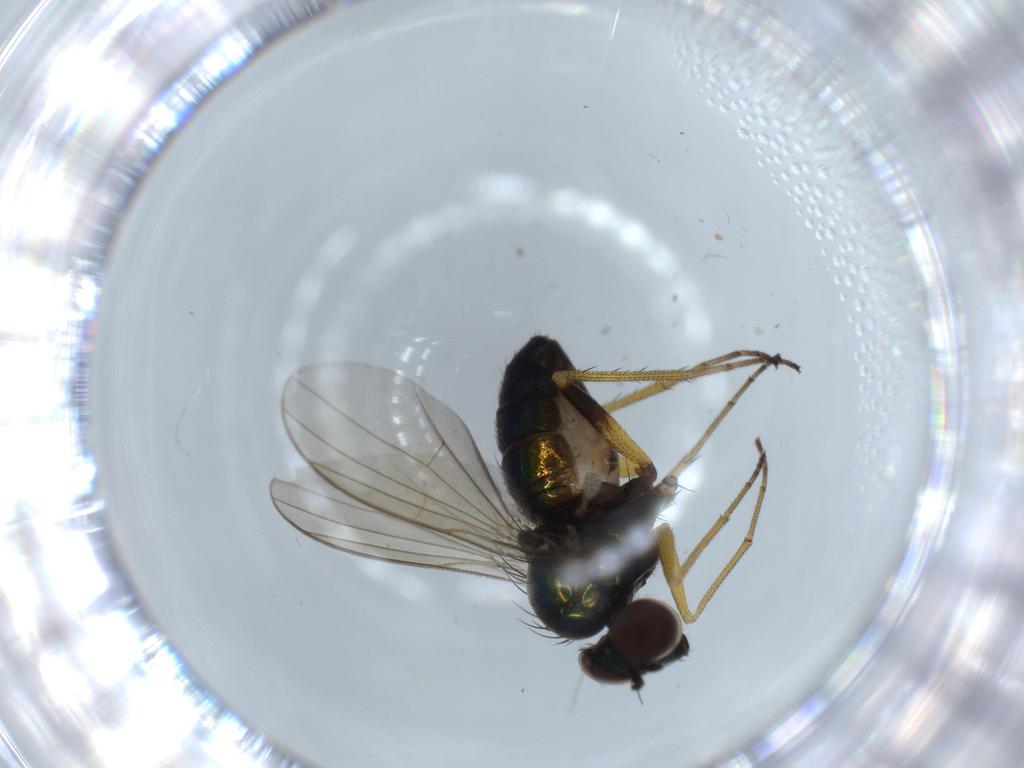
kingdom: Animalia
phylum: Arthropoda
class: Insecta
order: Diptera
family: Dolichopodidae
